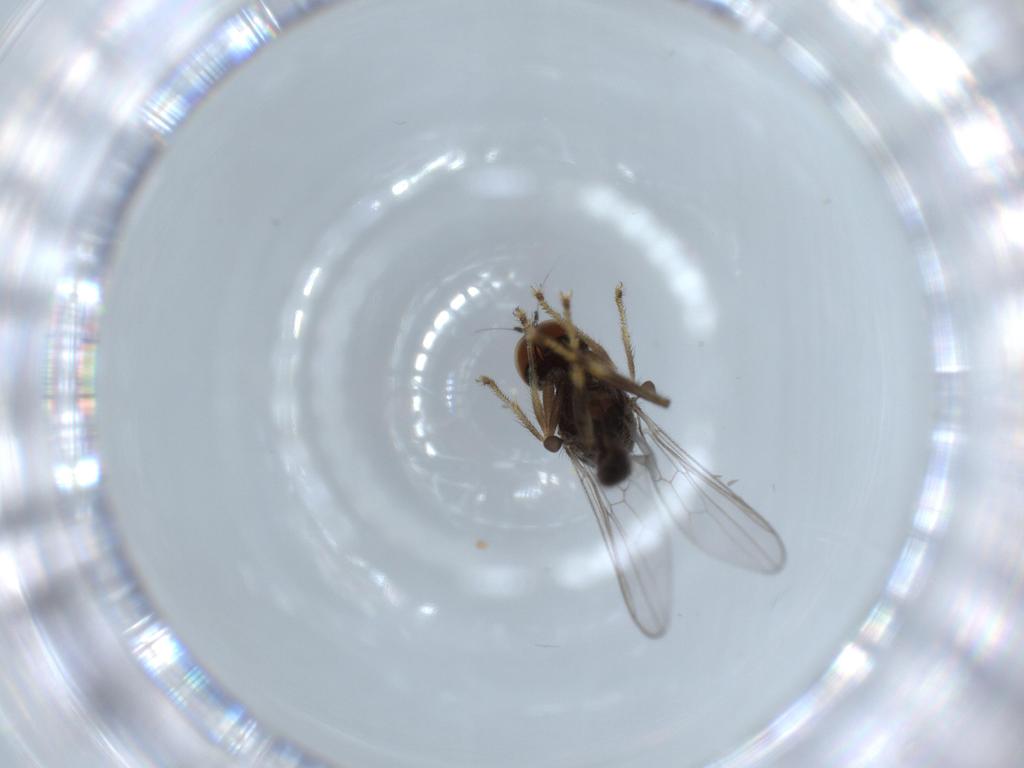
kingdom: Animalia
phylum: Arthropoda
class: Insecta
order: Diptera
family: Hybotidae
